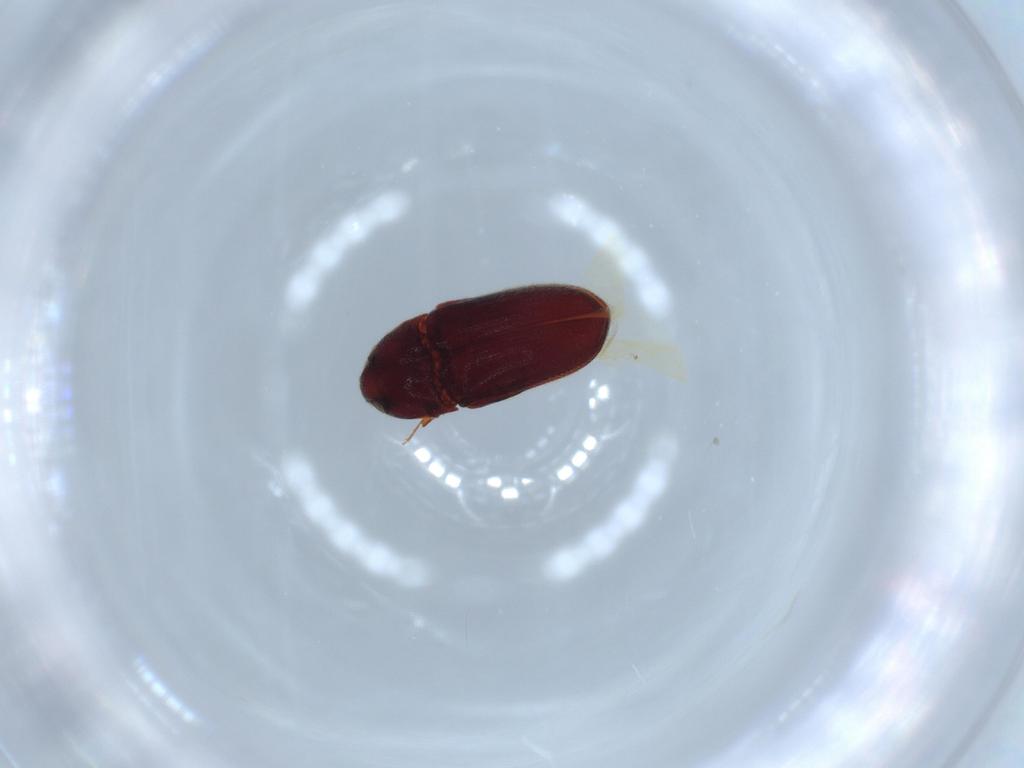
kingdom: Animalia
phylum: Arthropoda
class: Insecta
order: Coleoptera
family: Throscidae
